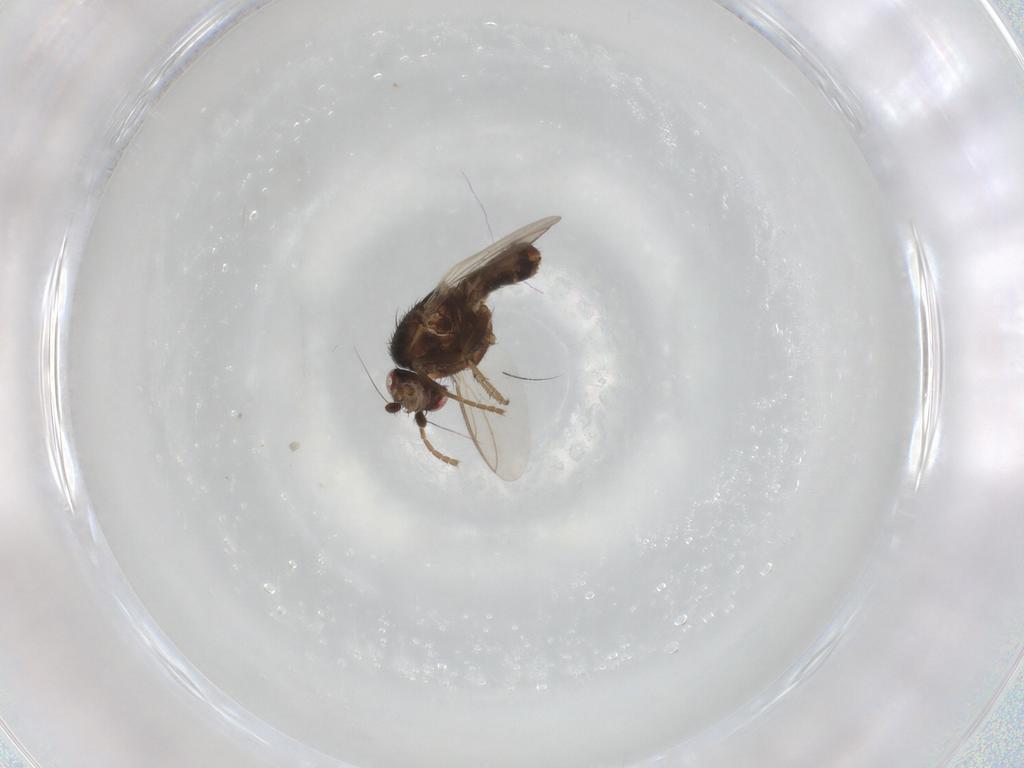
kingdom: Animalia
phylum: Arthropoda
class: Insecta
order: Diptera
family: Sphaeroceridae
